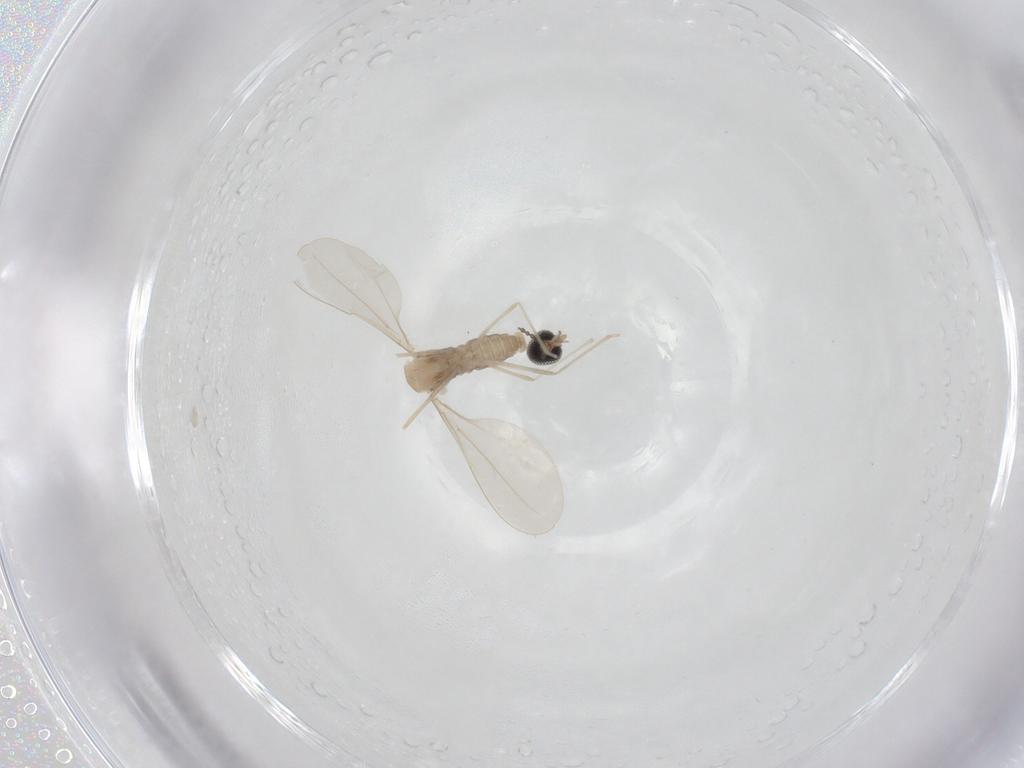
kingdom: Animalia
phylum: Arthropoda
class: Insecta
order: Diptera
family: Cecidomyiidae
